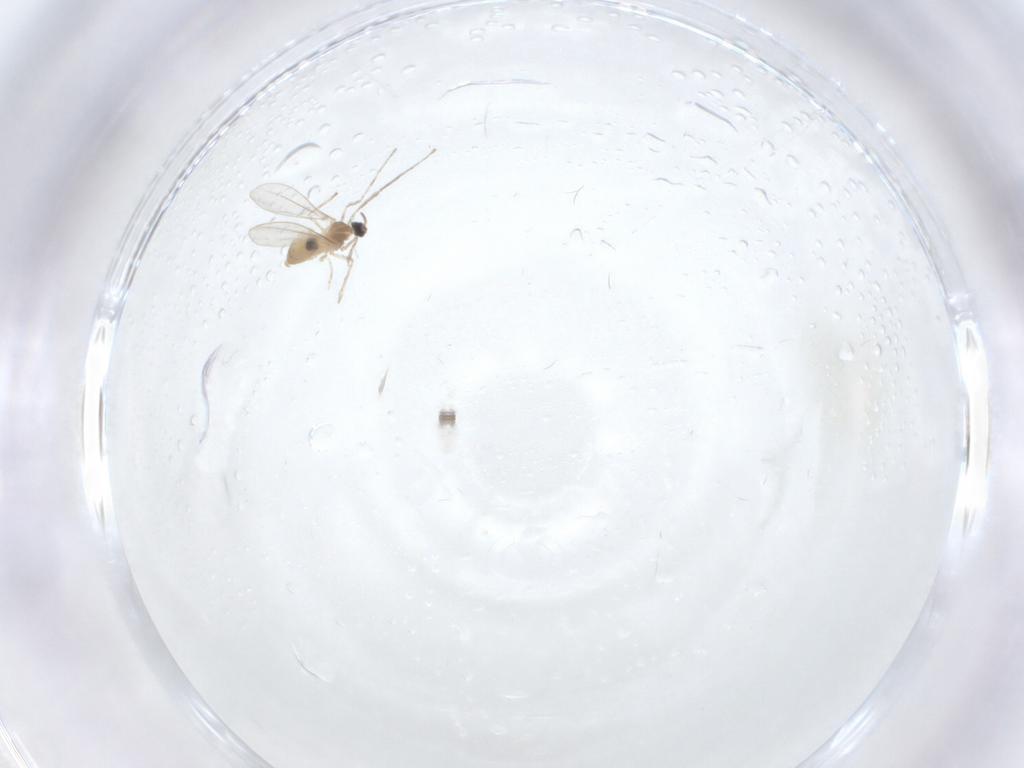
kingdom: Animalia
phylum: Arthropoda
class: Insecta
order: Diptera
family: Cecidomyiidae
